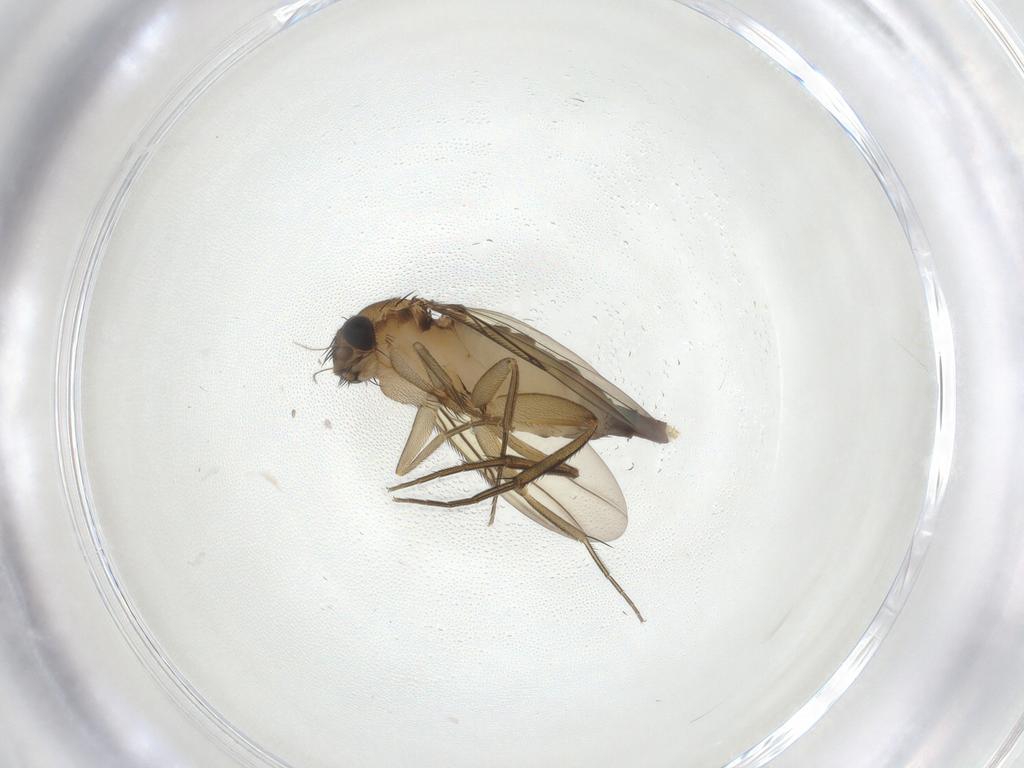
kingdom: Animalia
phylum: Arthropoda
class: Insecta
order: Diptera
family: Phoridae
